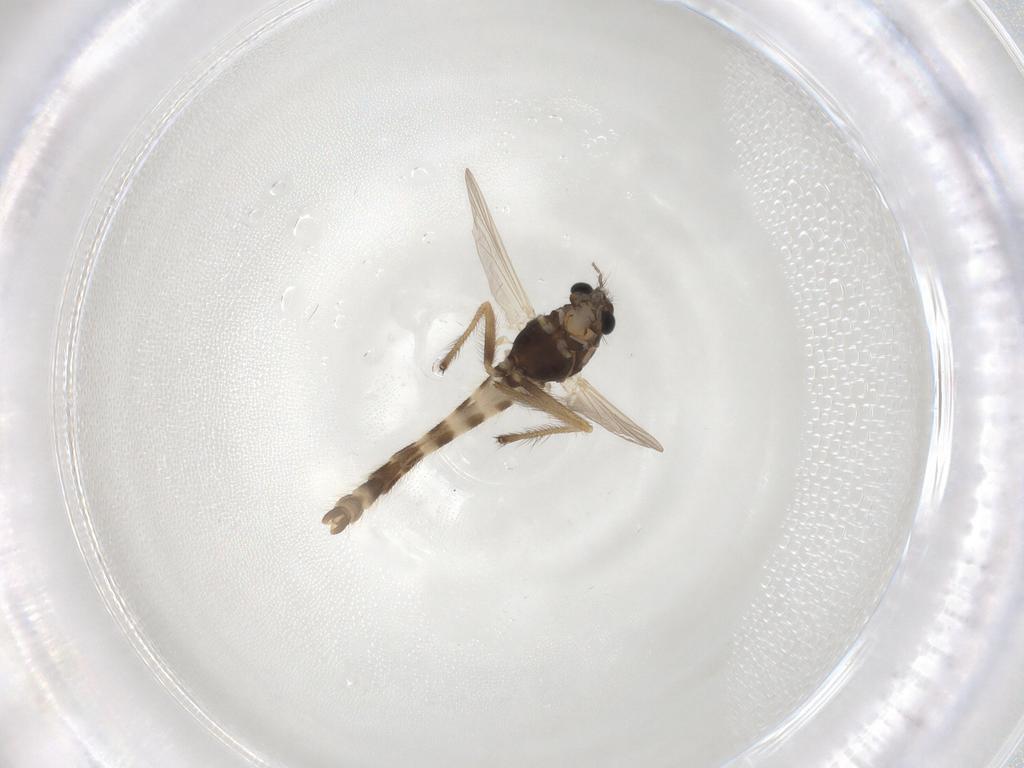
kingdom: Animalia
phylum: Arthropoda
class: Insecta
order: Diptera
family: Chironomidae
